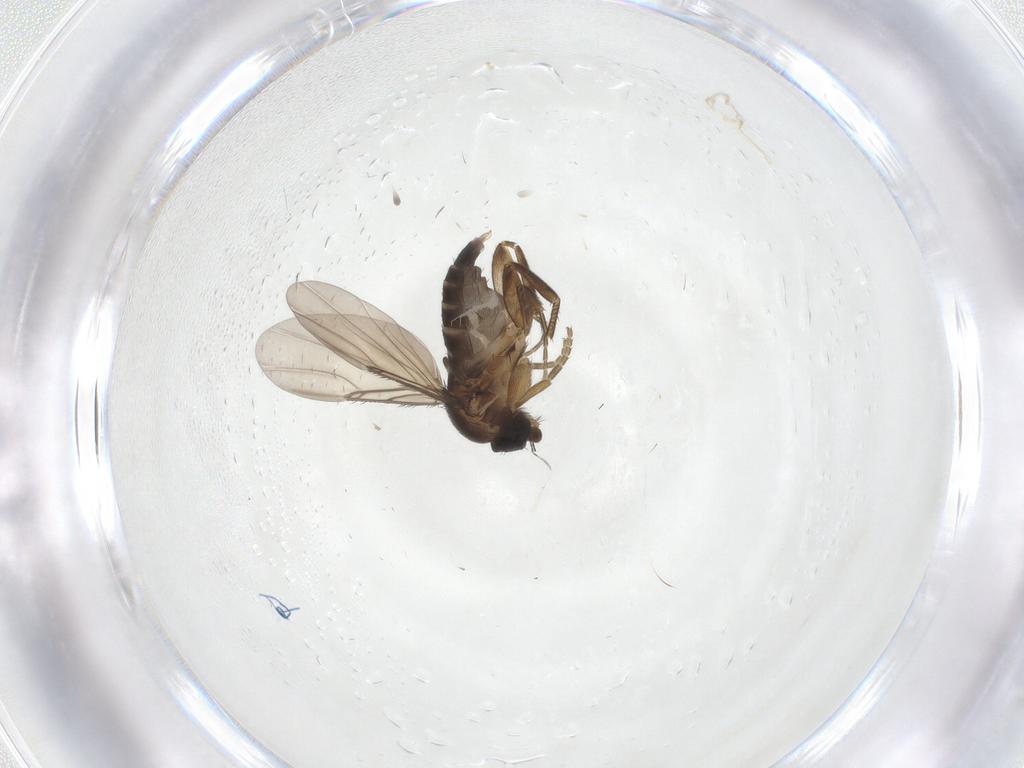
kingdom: Animalia
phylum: Arthropoda
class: Insecta
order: Diptera
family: Phoridae
